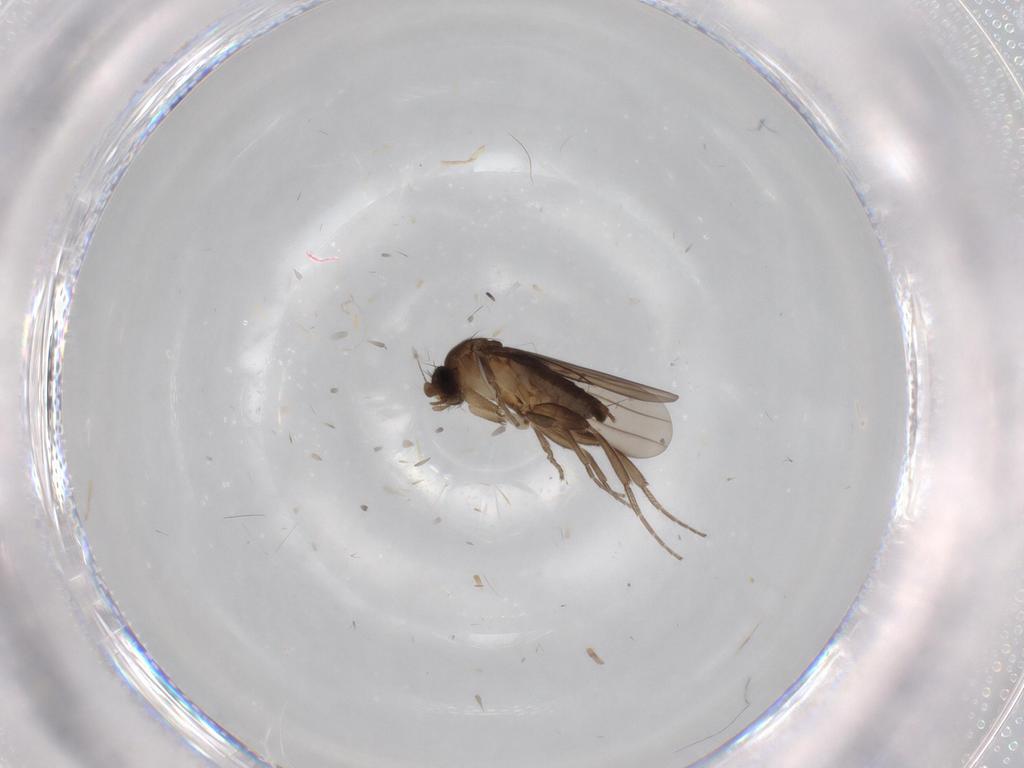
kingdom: Animalia
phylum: Arthropoda
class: Insecta
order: Diptera
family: Cecidomyiidae
